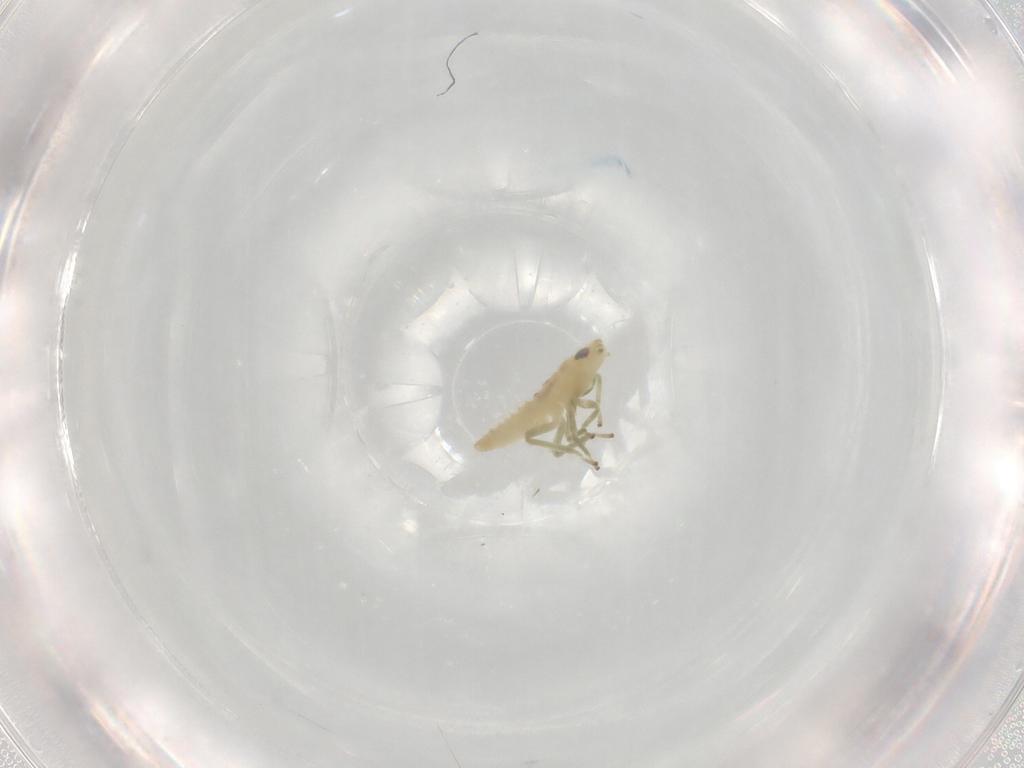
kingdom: Animalia
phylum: Arthropoda
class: Insecta
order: Hemiptera
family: Cicadellidae
